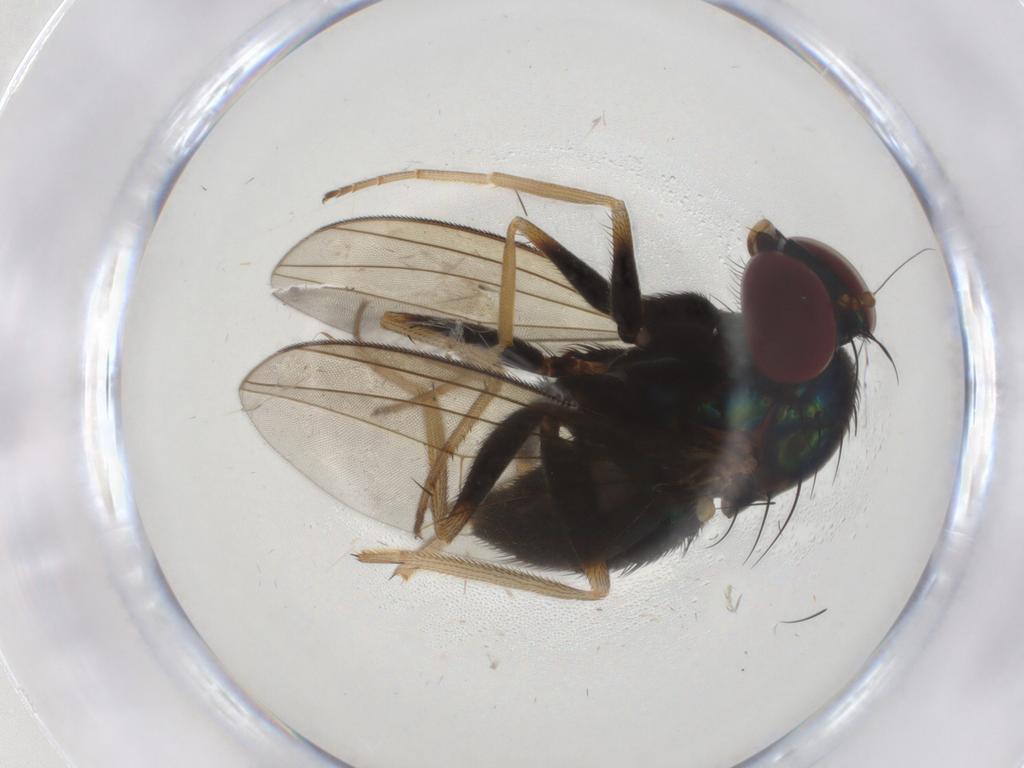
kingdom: Animalia
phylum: Arthropoda
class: Insecta
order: Diptera
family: Dolichopodidae
